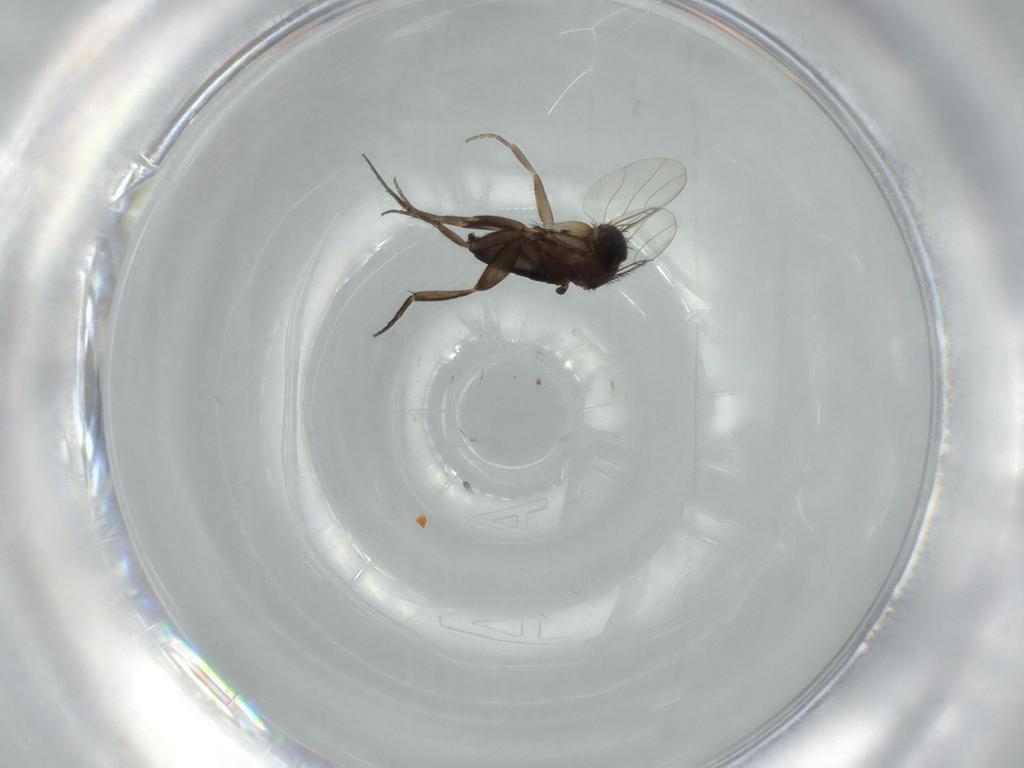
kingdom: Animalia
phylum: Arthropoda
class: Insecta
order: Diptera
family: Phoridae
